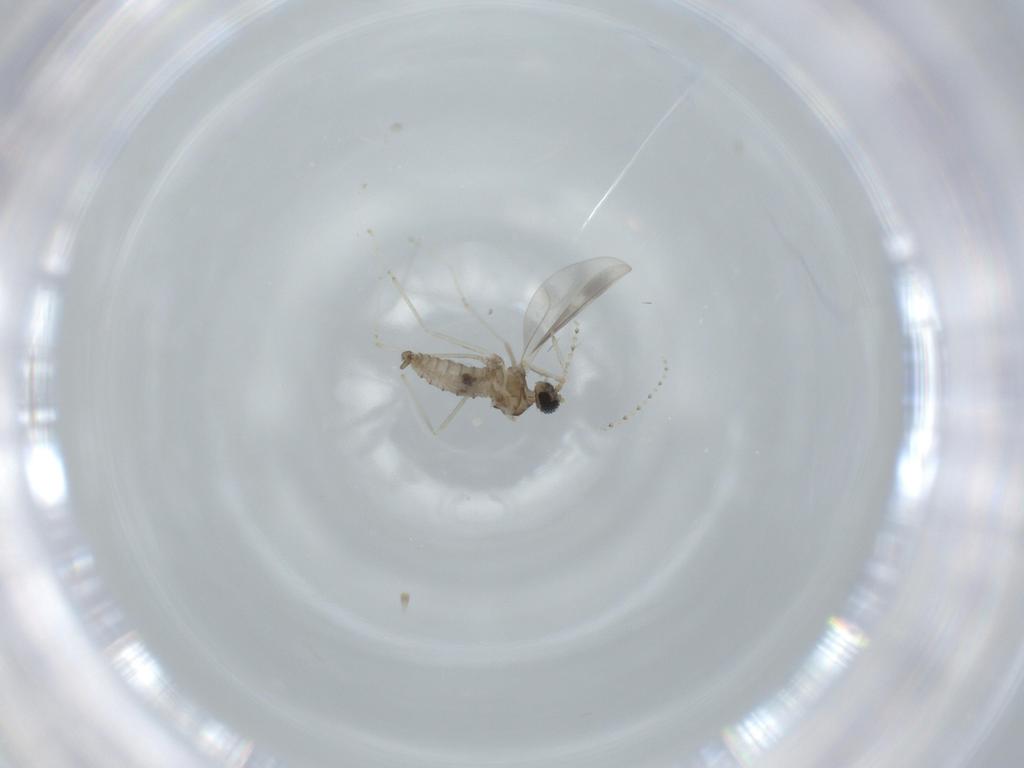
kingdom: Animalia
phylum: Arthropoda
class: Insecta
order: Diptera
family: Cecidomyiidae
